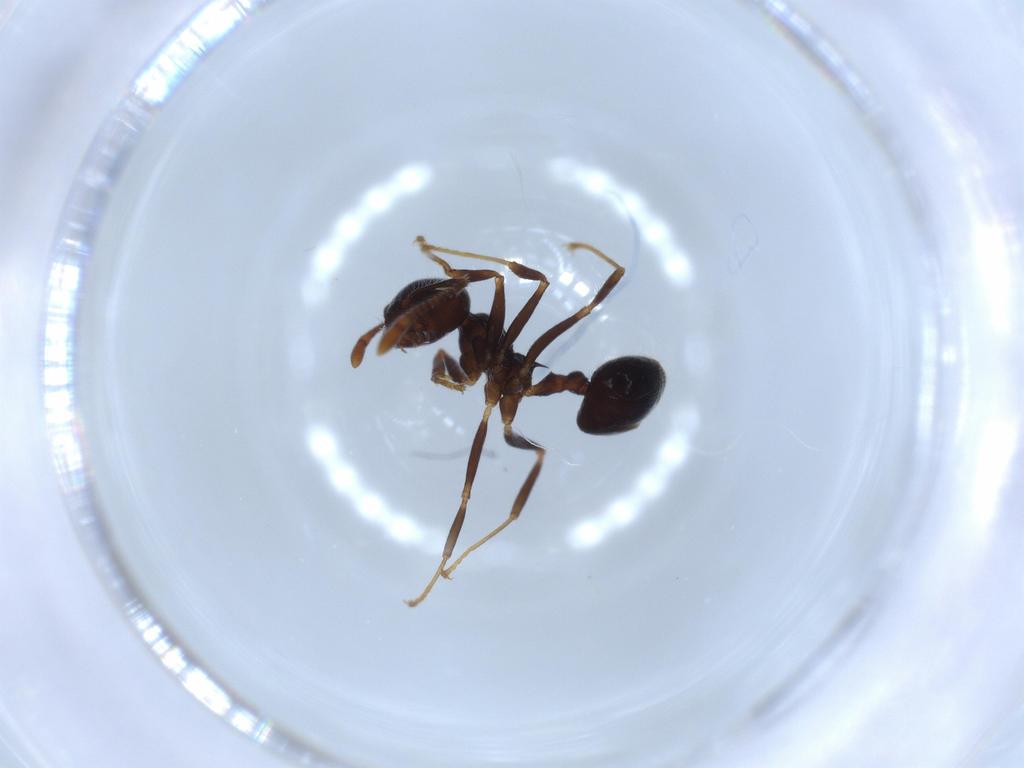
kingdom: Animalia
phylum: Arthropoda
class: Insecta
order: Hymenoptera
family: Formicidae
